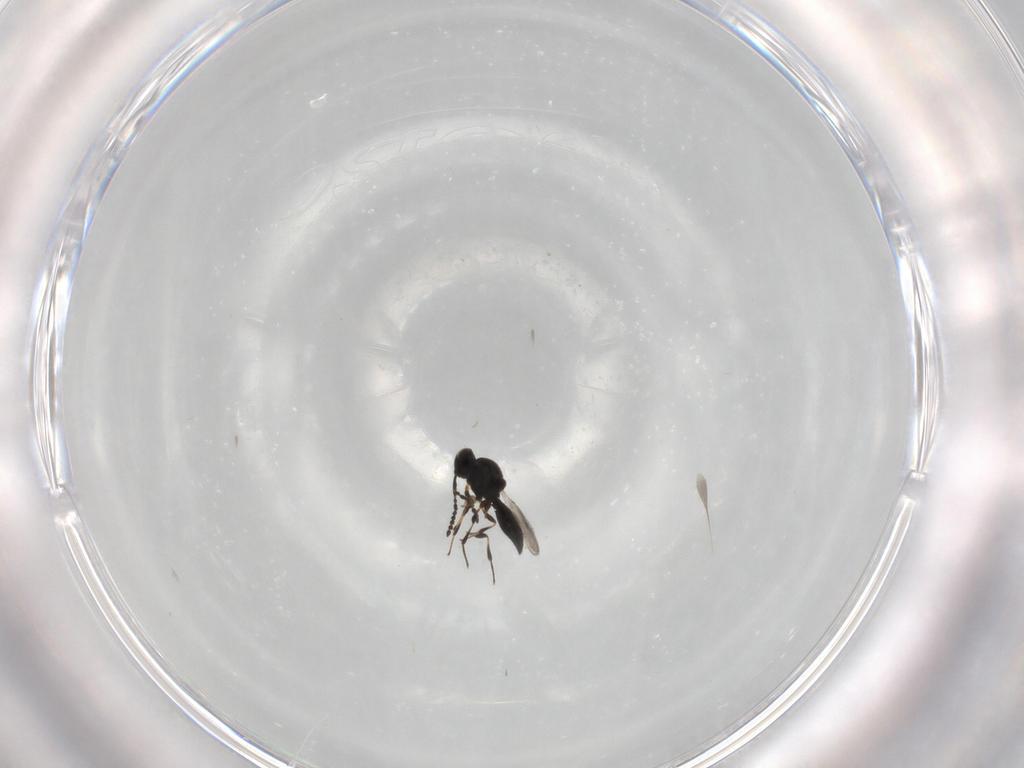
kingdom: Animalia
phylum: Arthropoda
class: Insecta
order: Hymenoptera
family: Platygastridae
